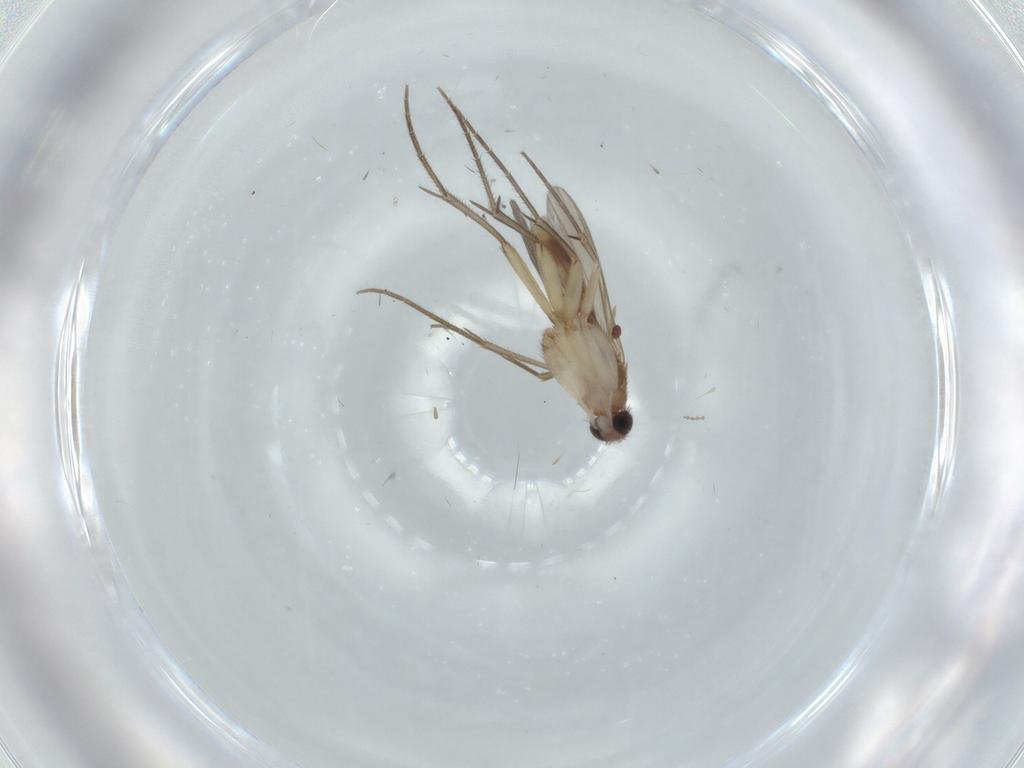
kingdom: Animalia
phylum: Arthropoda
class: Insecta
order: Diptera
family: Mycetophilidae
